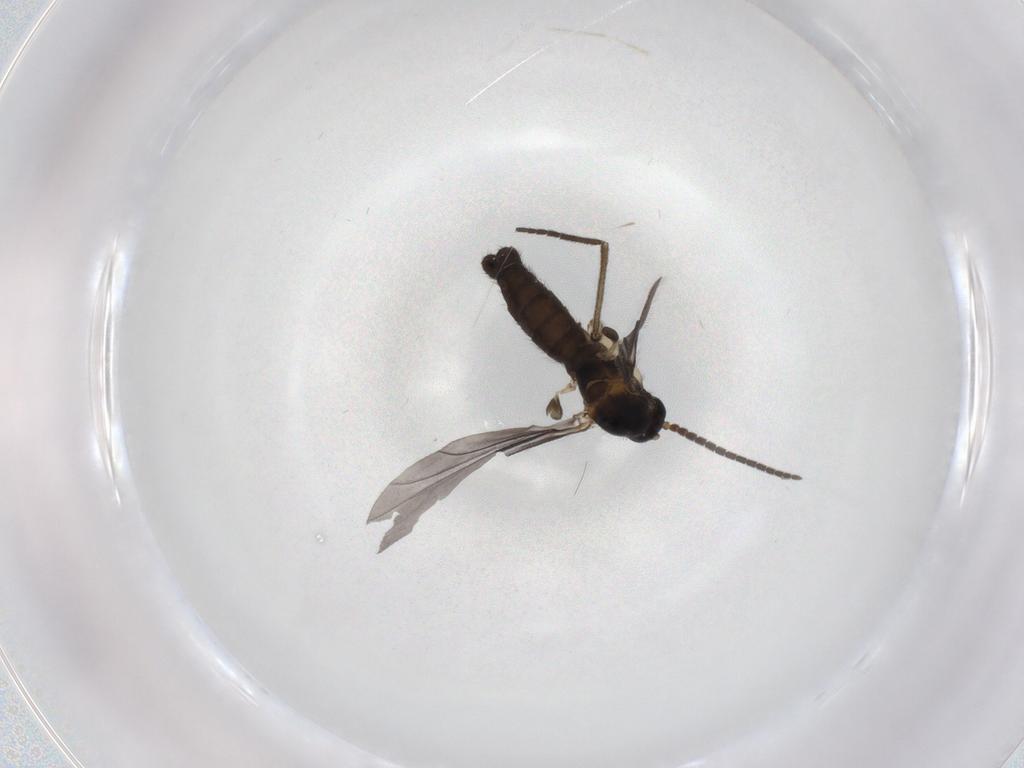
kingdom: Animalia
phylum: Arthropoda
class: Insecta
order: Diptera
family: Sciaridae
